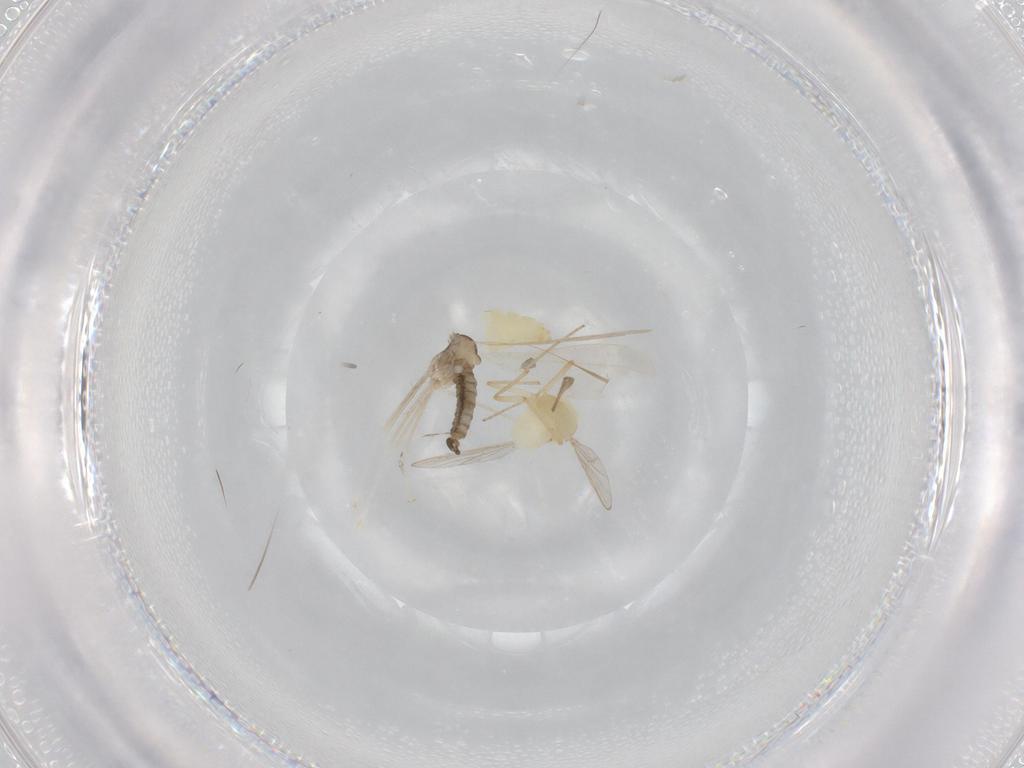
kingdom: Animalia
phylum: Arthropoda
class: Insecta
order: Diptera
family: Chironomidae
